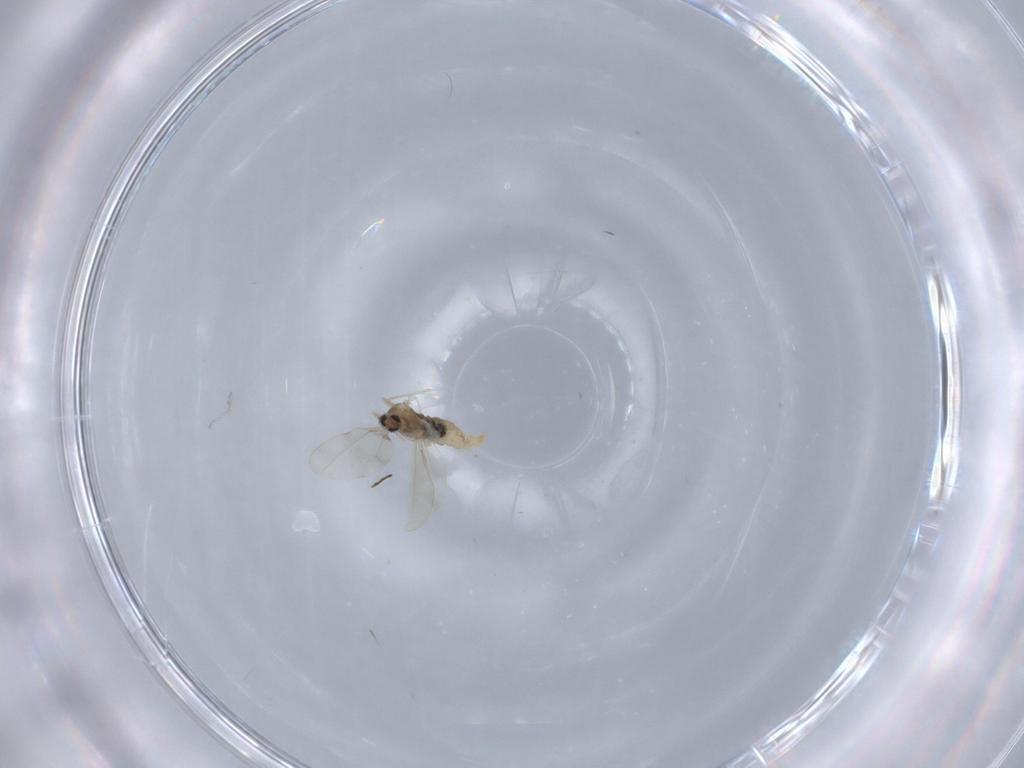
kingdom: Animalia
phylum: Arthropoda
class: Insecta
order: Diptera
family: Cecidomyiidae
